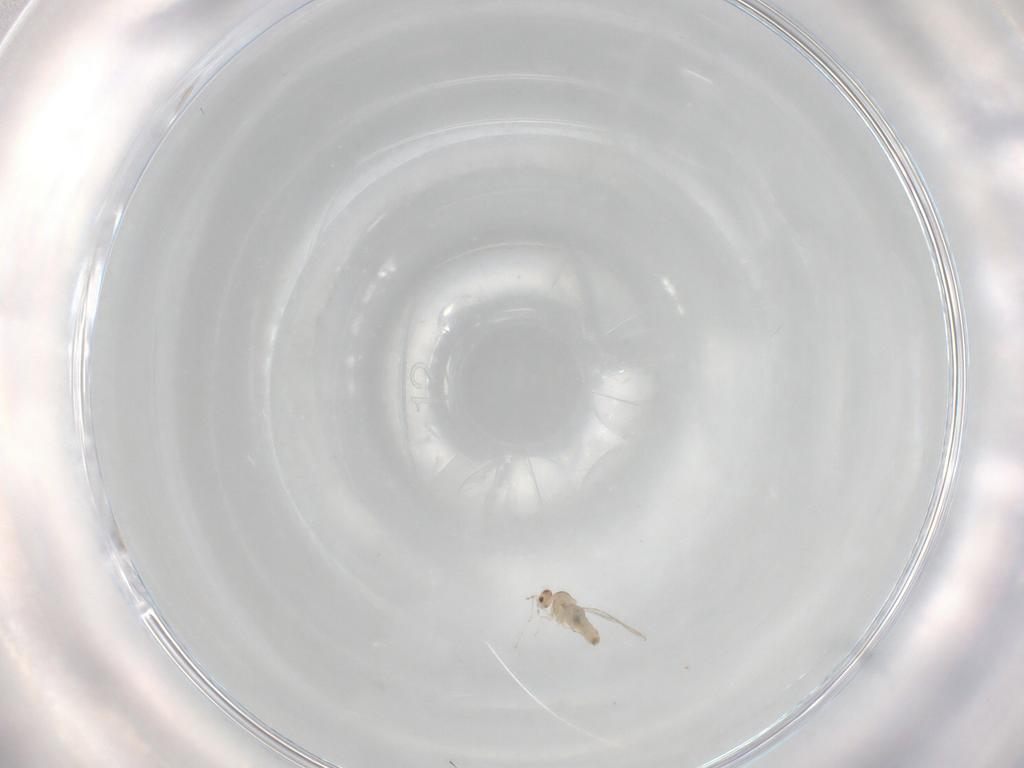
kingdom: Animalia
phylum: Arthropoda
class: Insecta
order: Diptera
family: Cecidomyiidae
